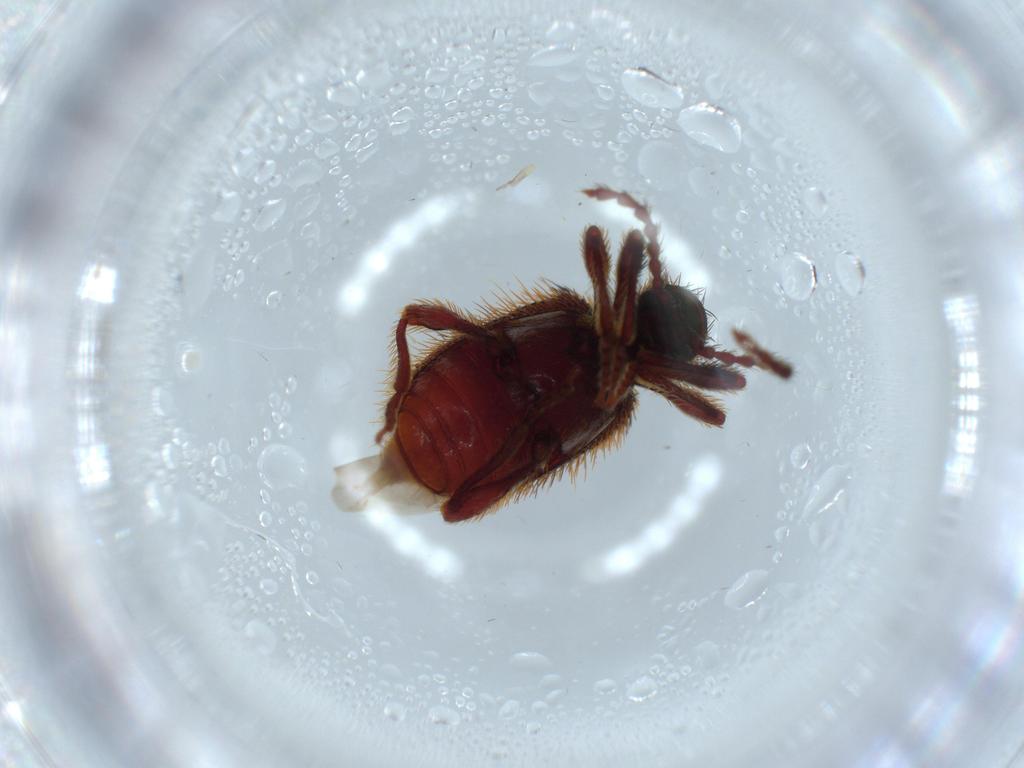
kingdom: Animalia
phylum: Arthropoda
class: Insecta
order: Coleoptera
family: Ptinidae
